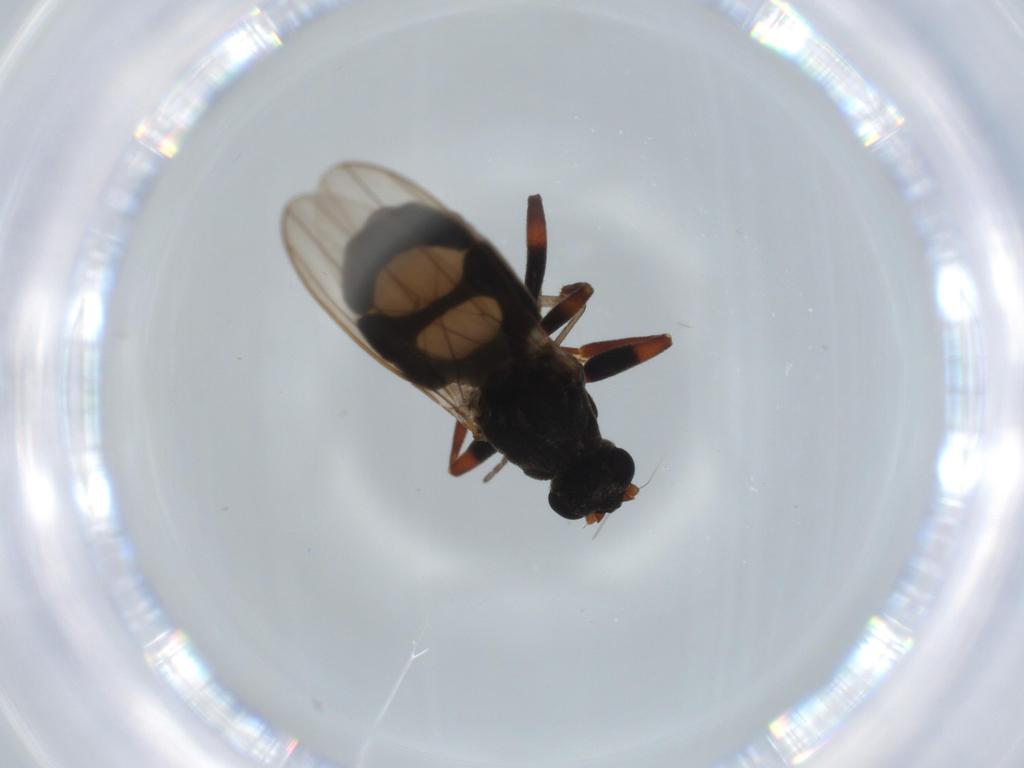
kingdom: Animalia
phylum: Arthropoda
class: Insecta
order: Diptera
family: Sphaeroceridae
